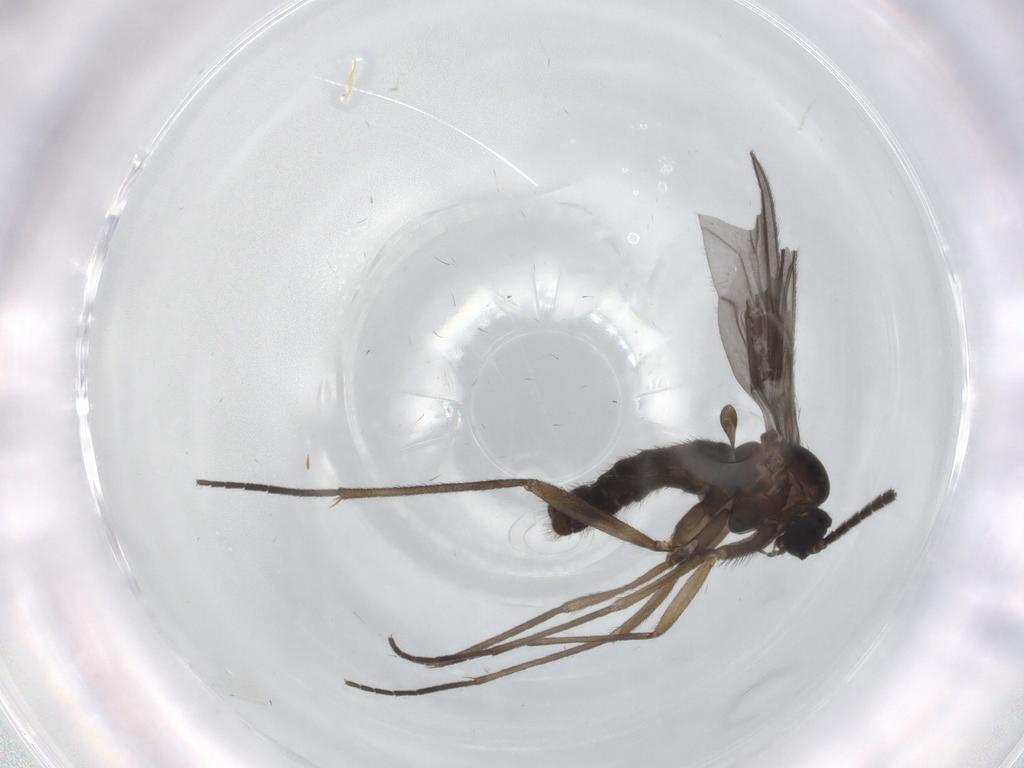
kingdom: Animalia
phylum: Arthropoda
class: Insecta
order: Diptera
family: Sciaridae
